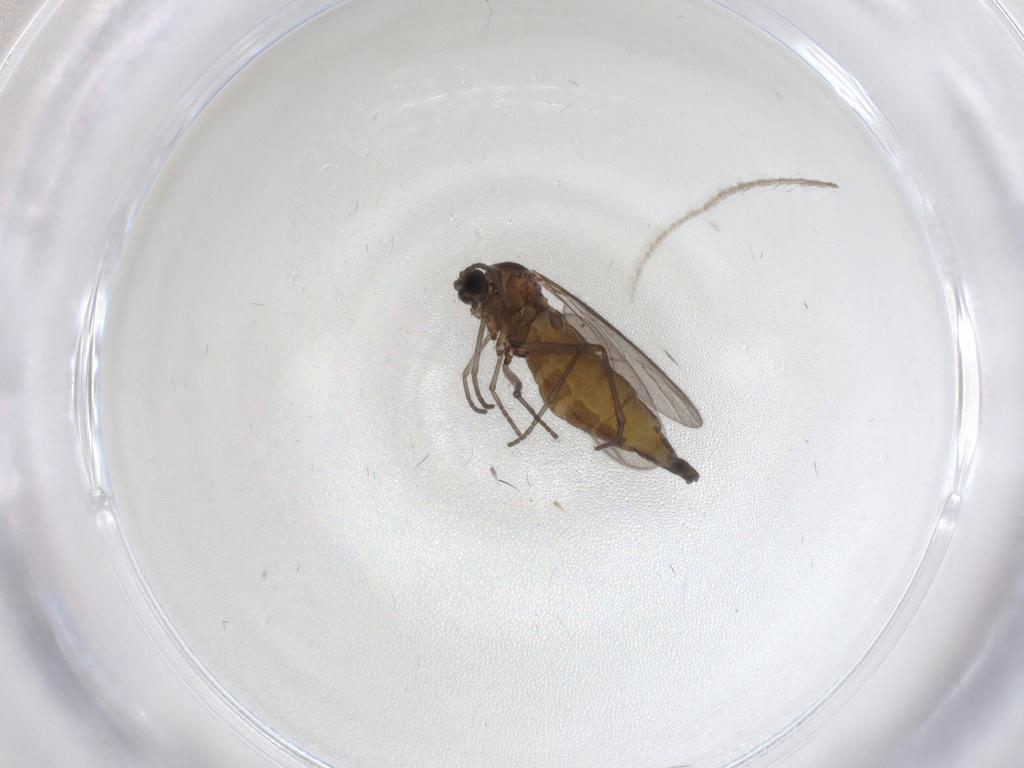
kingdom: Animalia
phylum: Arthropoda
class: Insecta
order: Diptera
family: Sciaridae
